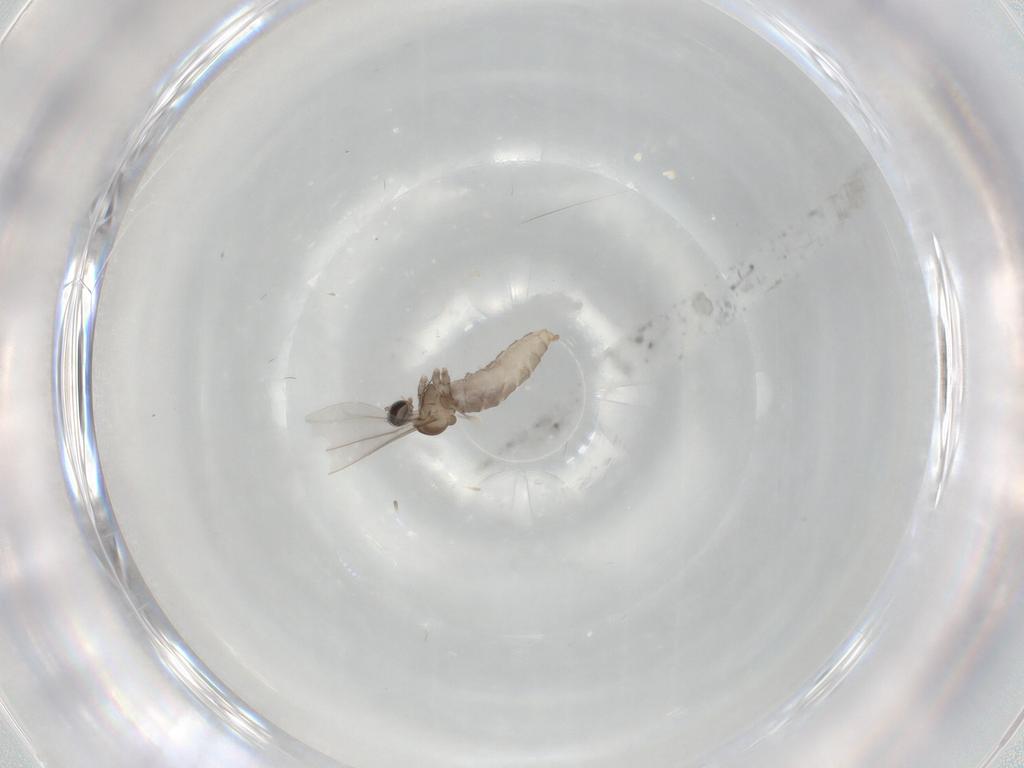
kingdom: Animalia
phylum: Arthropoda
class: Insecta
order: Diptera
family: Cecidomyiidae
